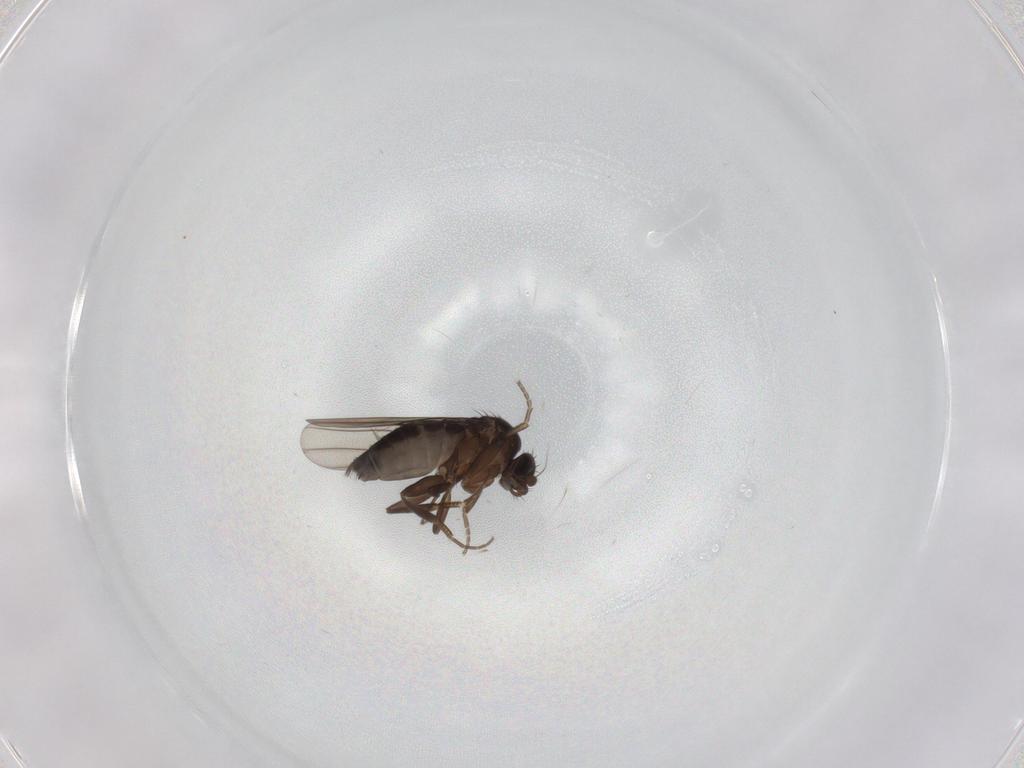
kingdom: Animalia
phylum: Arthropoda
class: Insecta
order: Diptera
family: Phoridae
